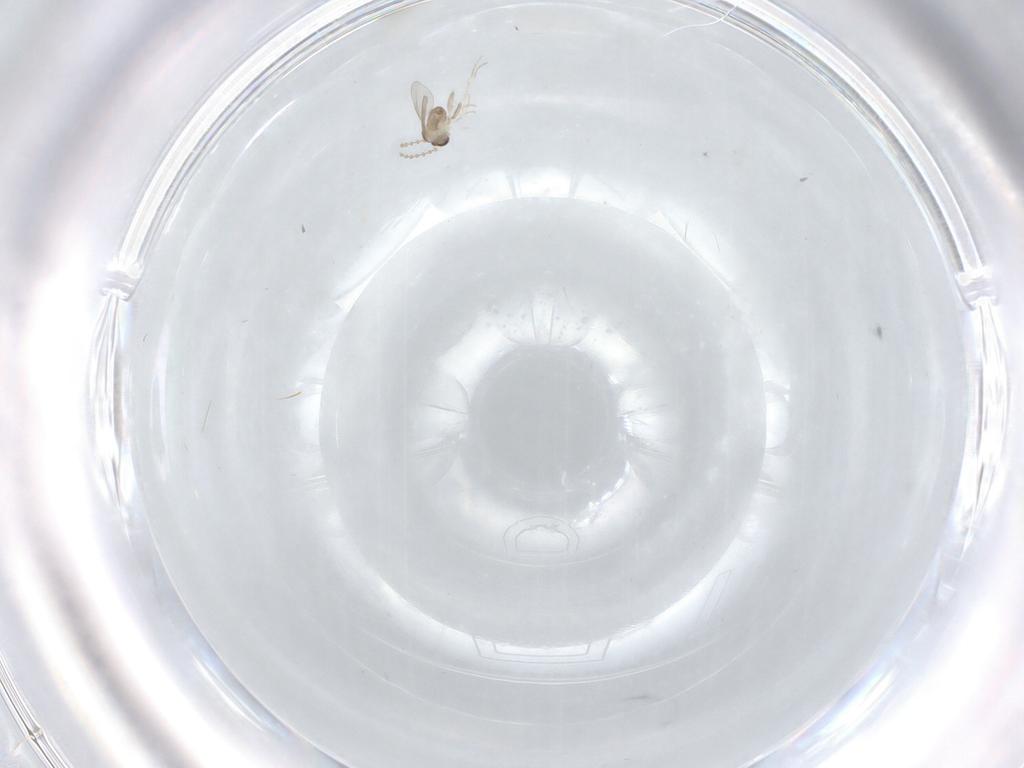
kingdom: Animalia
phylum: Arthropoda
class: Insecta
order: Diptera
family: Cecidomyiidae
